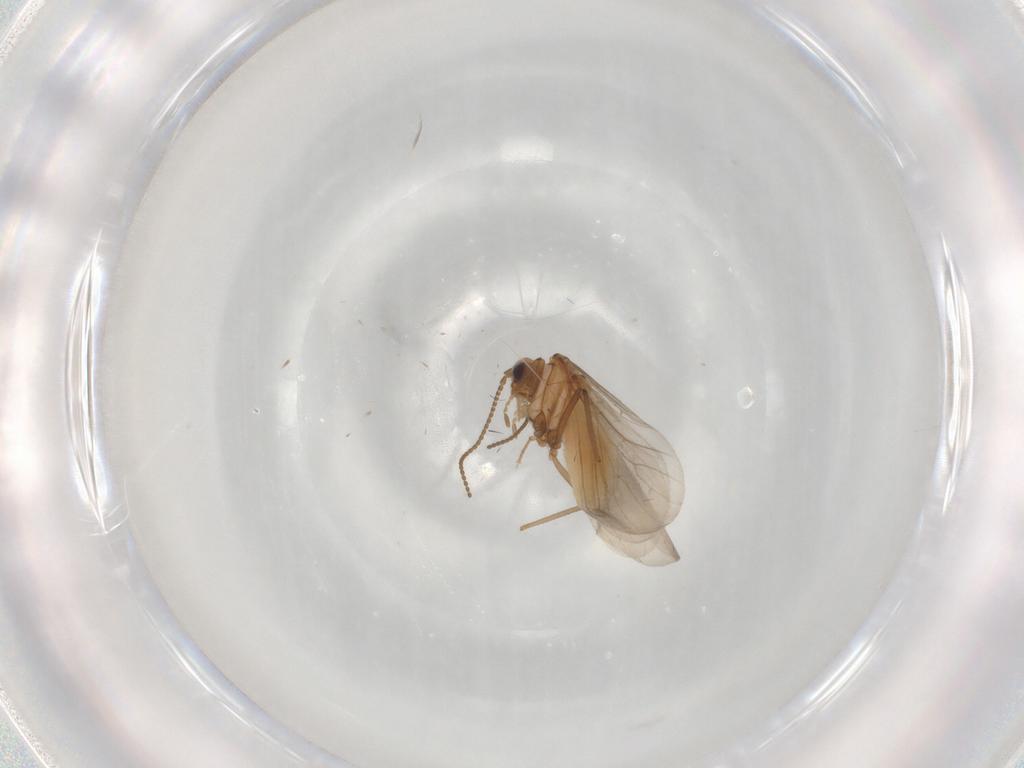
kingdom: Animalia
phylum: Arthropoda
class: Insecta
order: Neuroptera
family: Coniopterygidae
